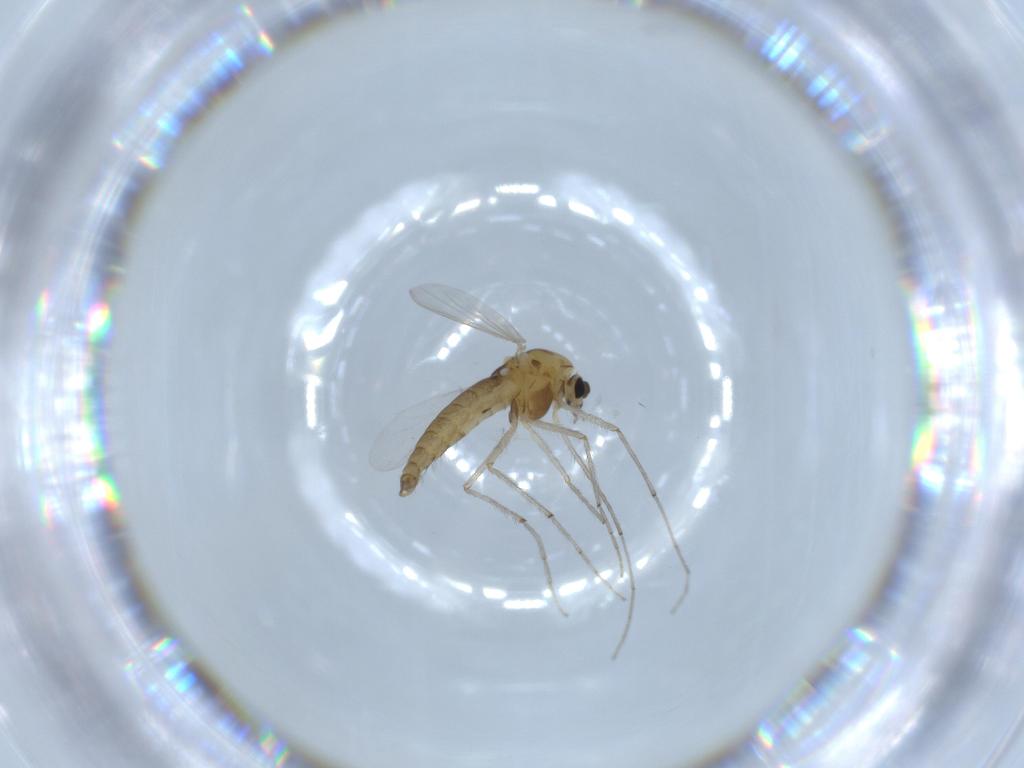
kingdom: Animalia
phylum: Arthropoda
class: Insecta
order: Diptera
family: Chironomidae
